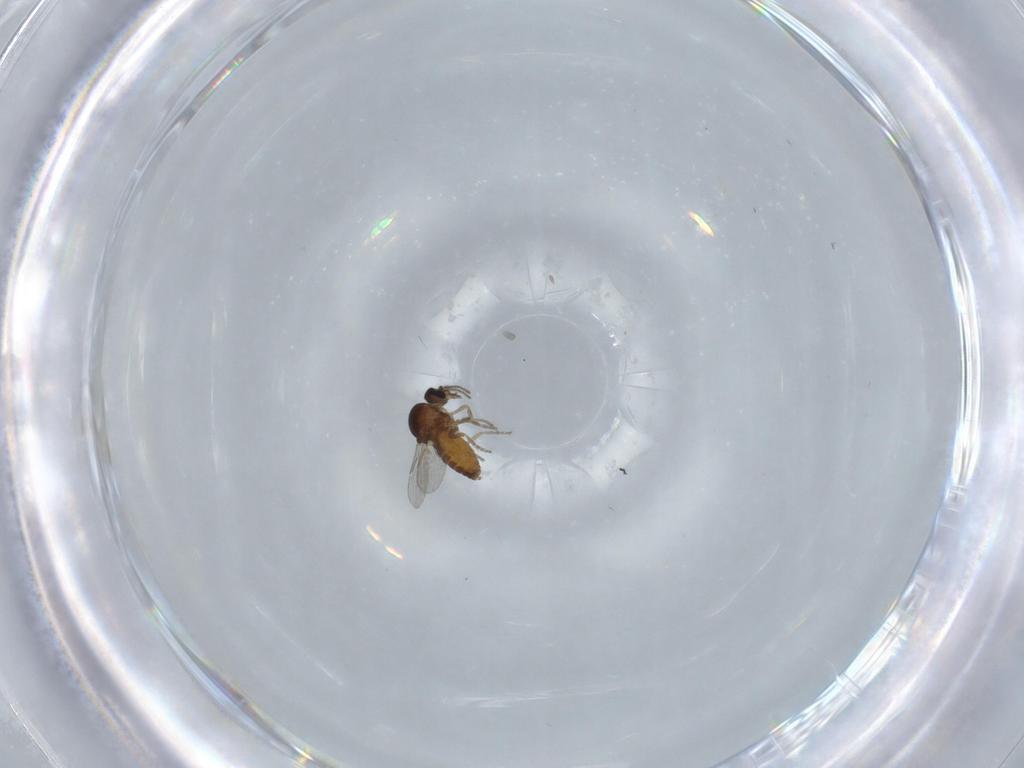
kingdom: Animalia
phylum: Arthropoda
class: Insecta
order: Diptera
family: Ceratopogonidae
